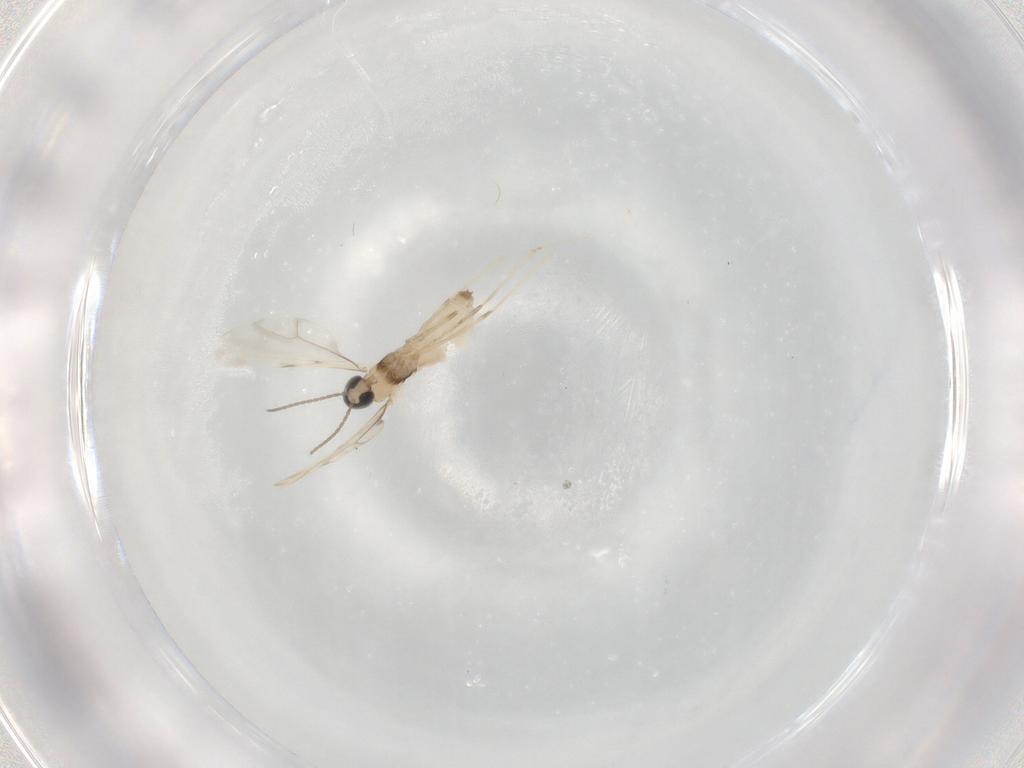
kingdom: Animalia
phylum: Arthropoda
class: Insecta
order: Diptera
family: Cecidomyiidae
